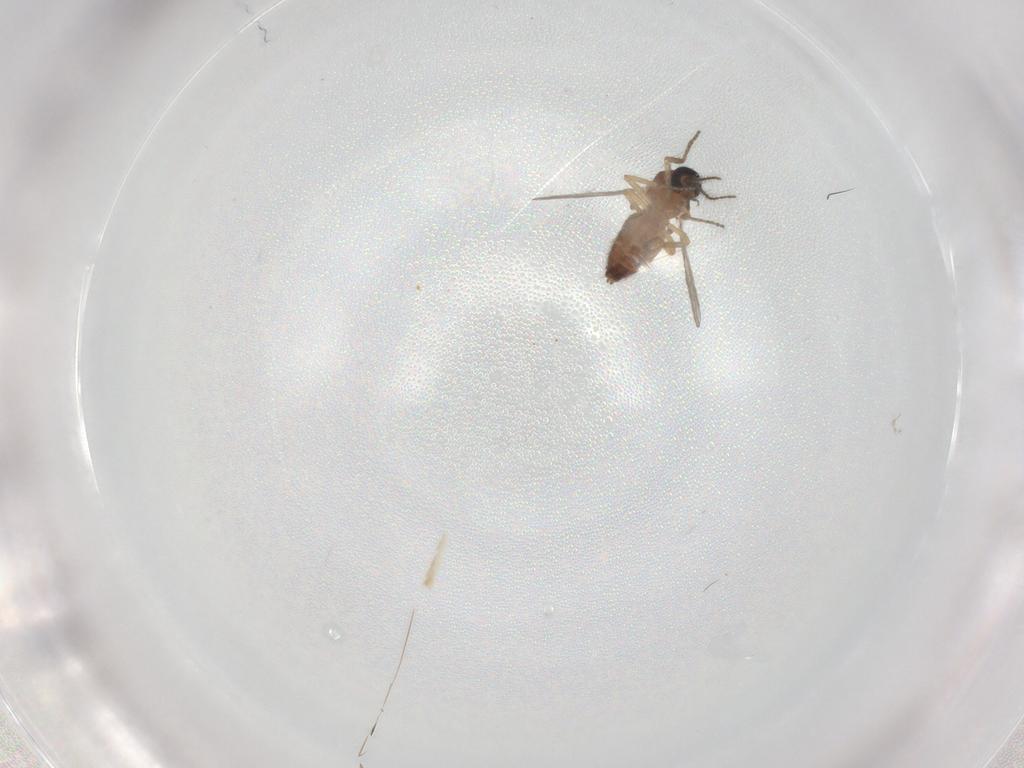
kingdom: Animalia
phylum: Arthropoda
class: Insecta
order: Diptera
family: Ceratopogonidae
